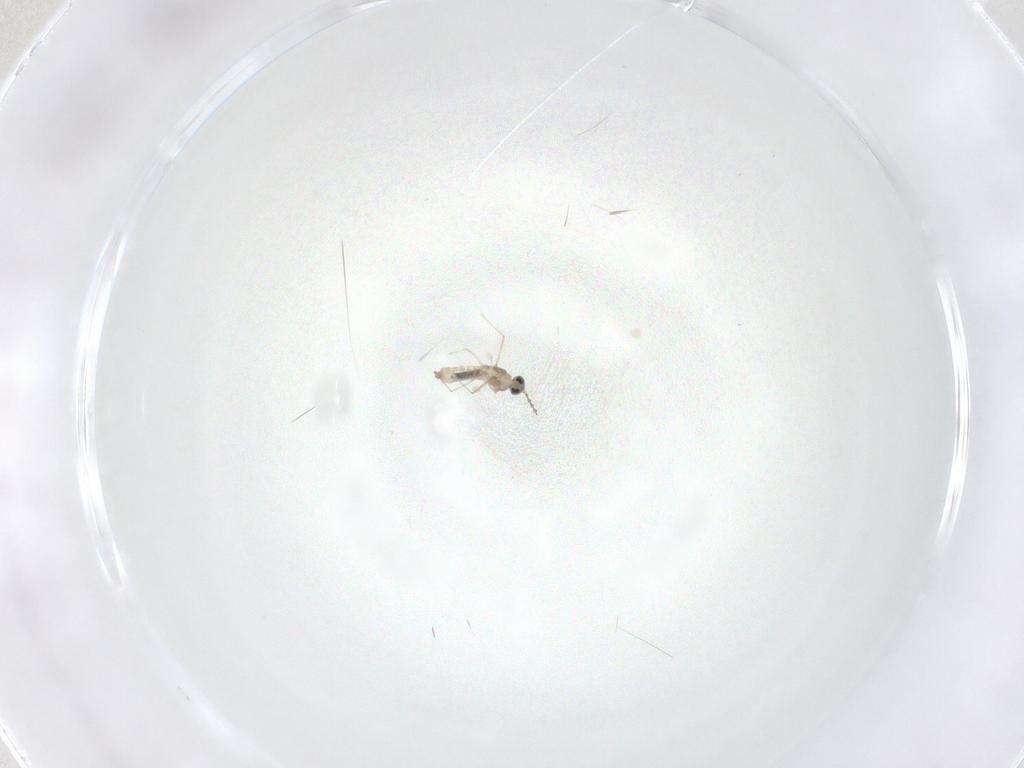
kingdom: Animalia
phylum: Arthropoda
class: Insecta
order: Diptera
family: Cecidomyiidae
